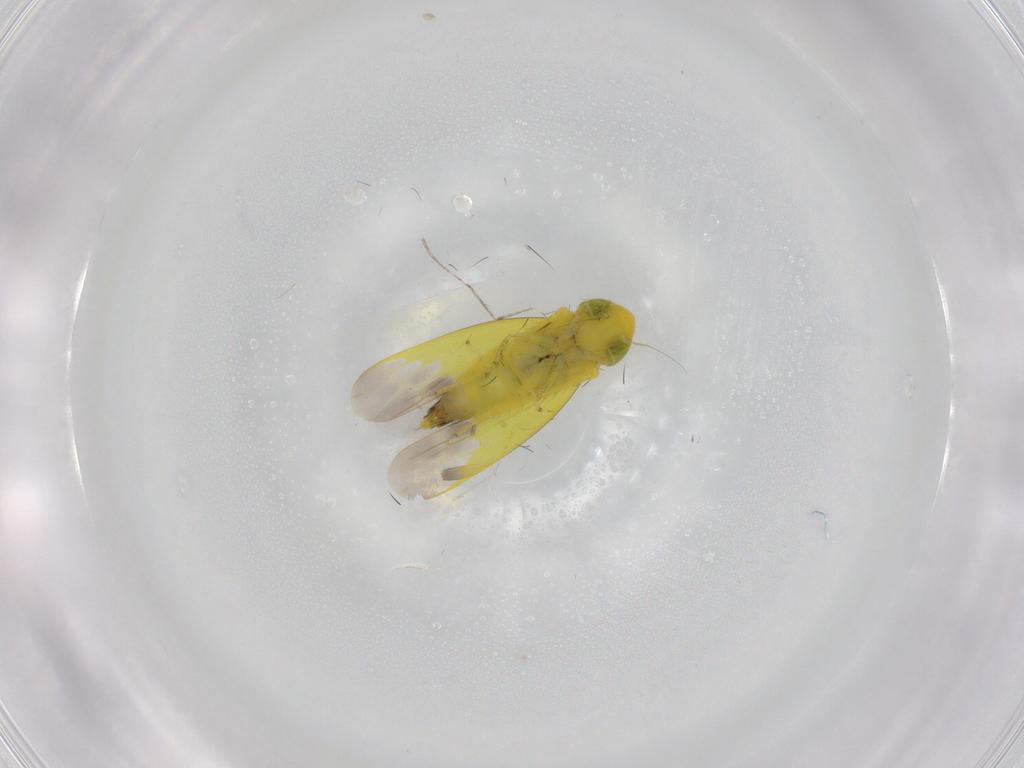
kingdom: Animalia
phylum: Arthropoda
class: Insecta
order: Hemiptera
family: Cicadellidae
